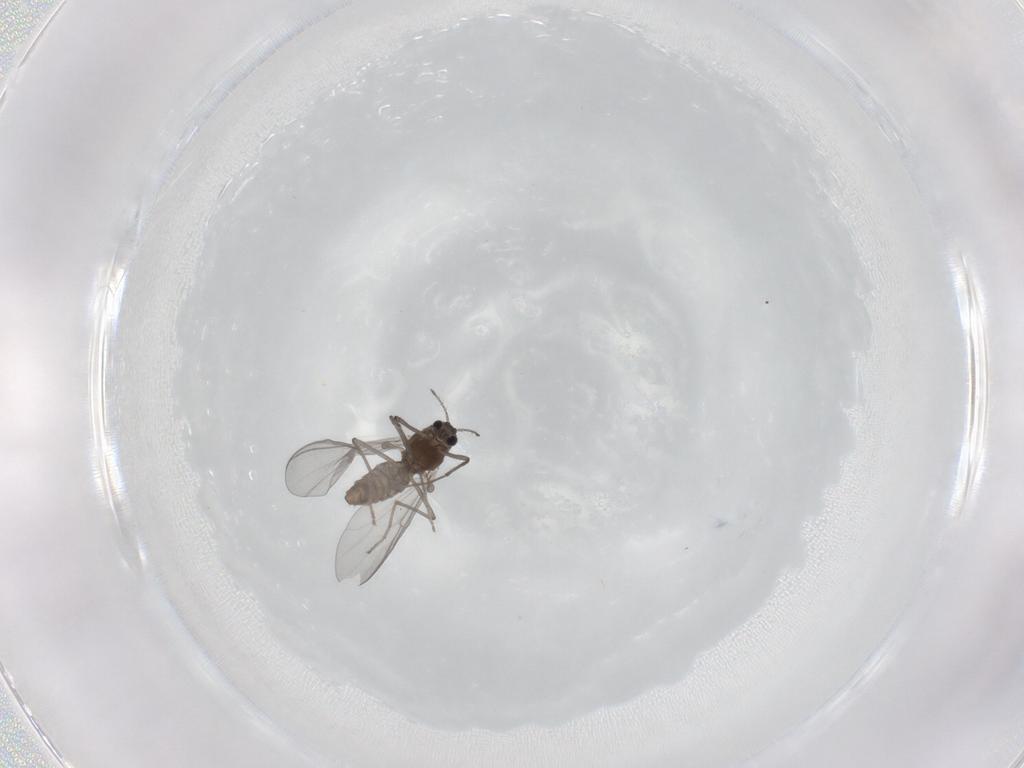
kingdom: Animalia
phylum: Arthropoda
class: Insecta
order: Diptera
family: Chironomidae
